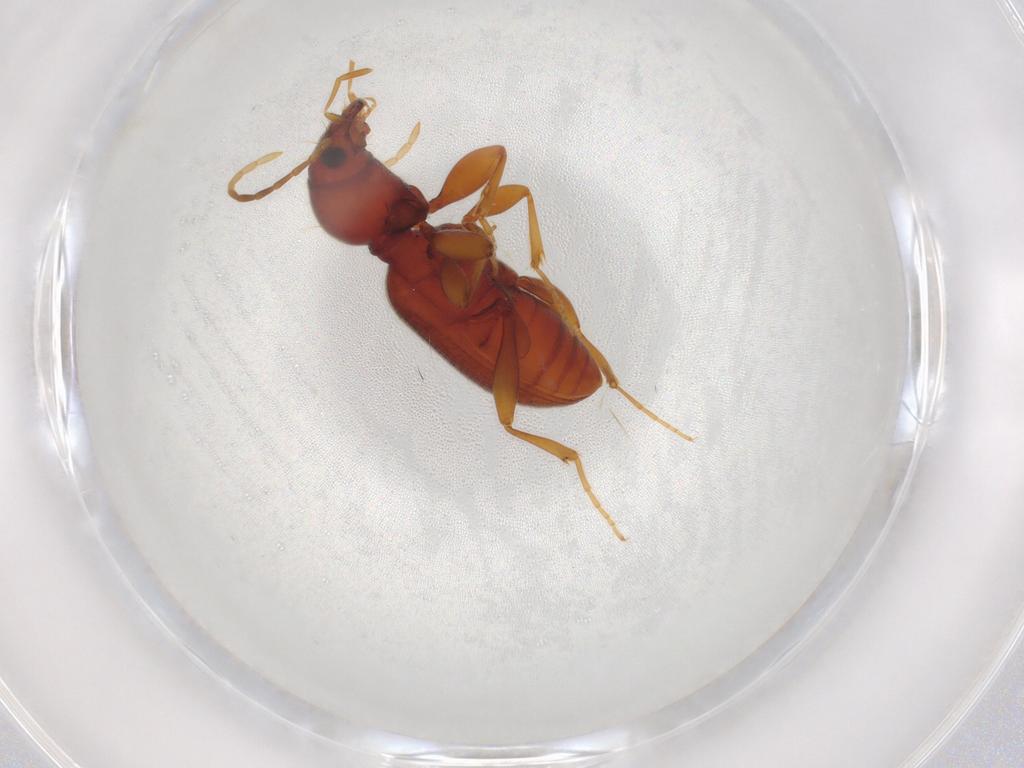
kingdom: Animalia
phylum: Arthropoda
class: Insecta
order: Coleoptera
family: Carabidae
